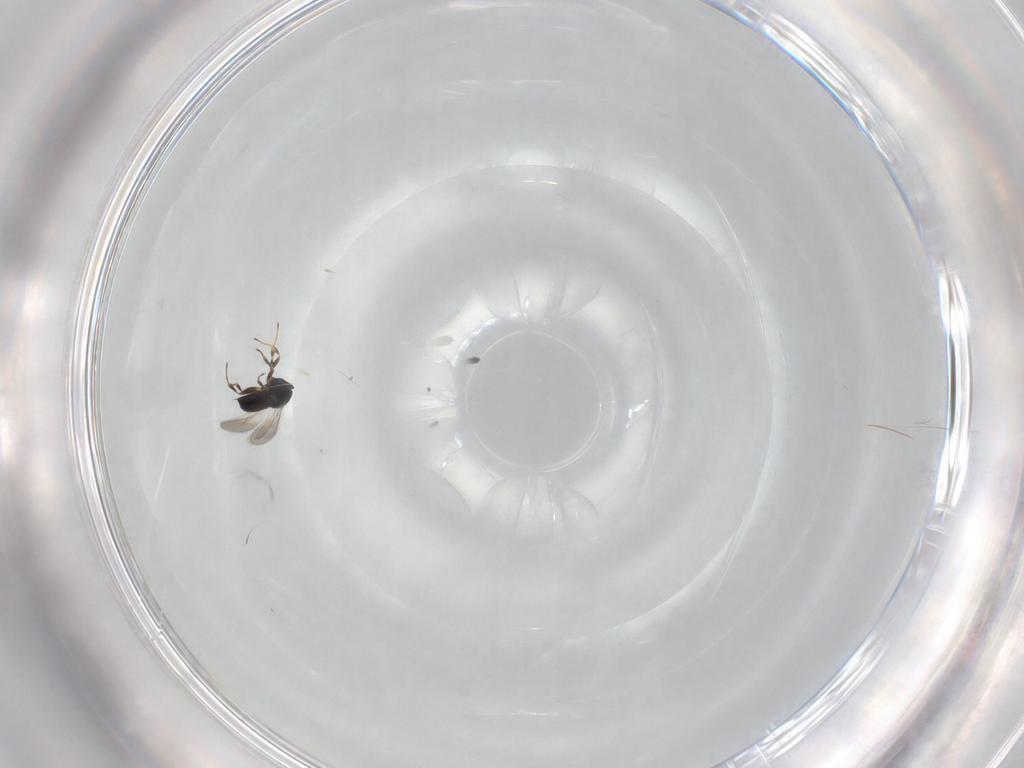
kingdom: Animalia
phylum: Arthropoda
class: Insecta
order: Hymenoptera
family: Scelionidae
